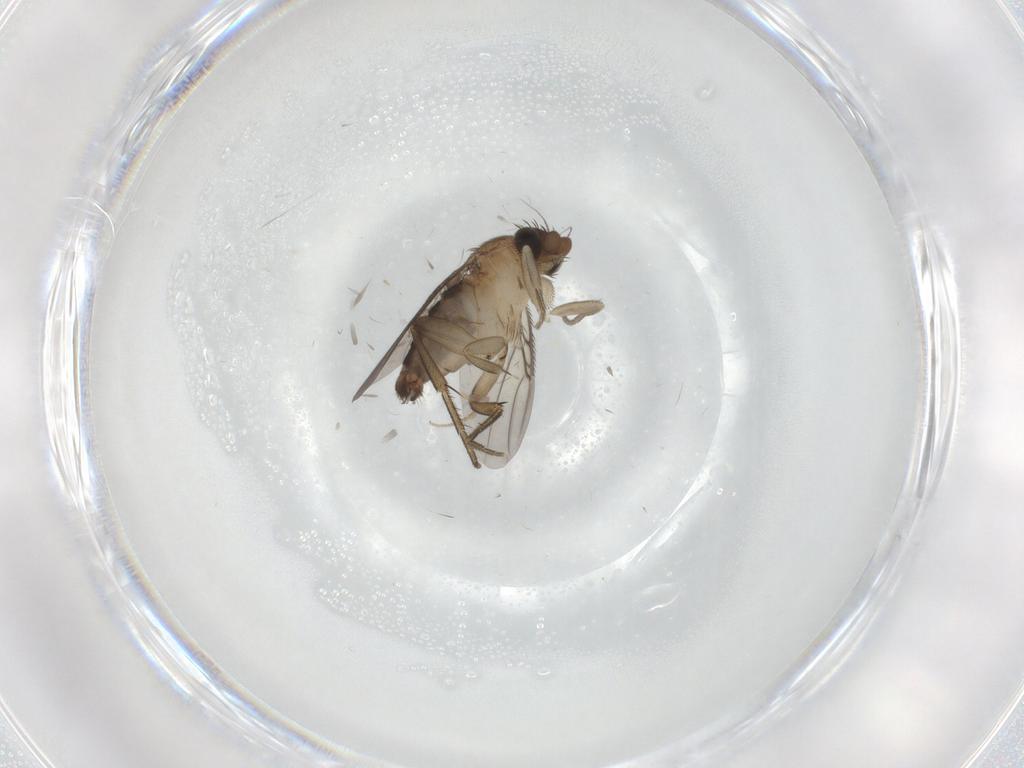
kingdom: Animalia
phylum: Arthropoda
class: Insecta
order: Diptera
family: Drosophilidae
